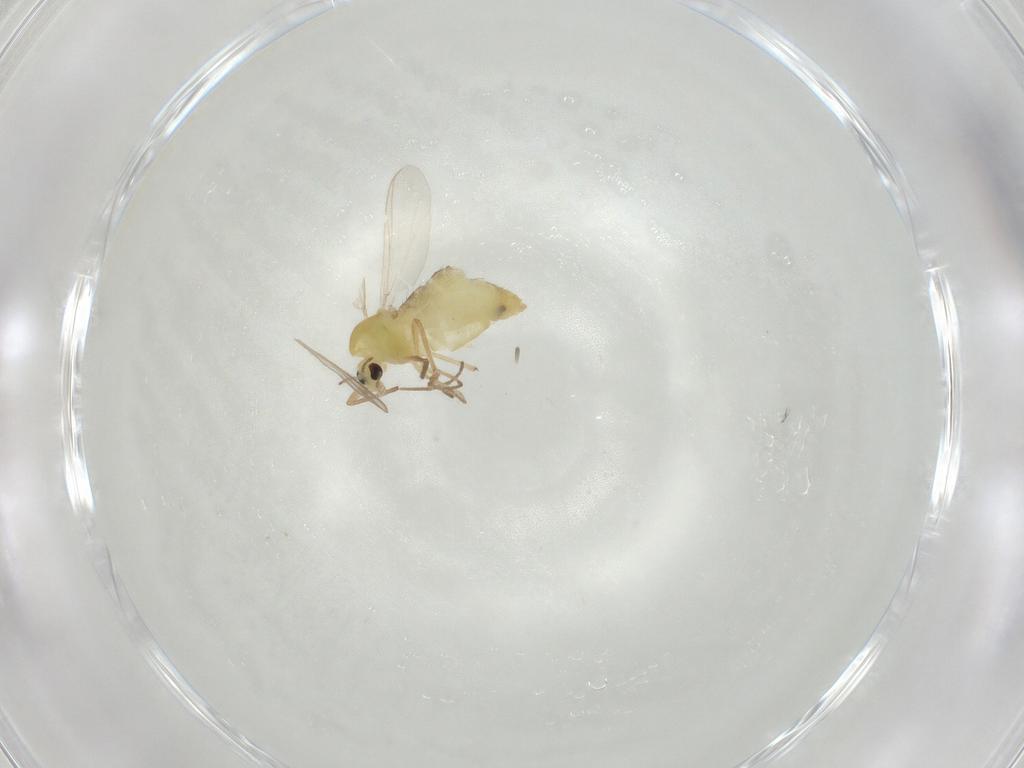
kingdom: Animalia
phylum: Arthropoda
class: Insecta
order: Diptera
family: Chironomidae
